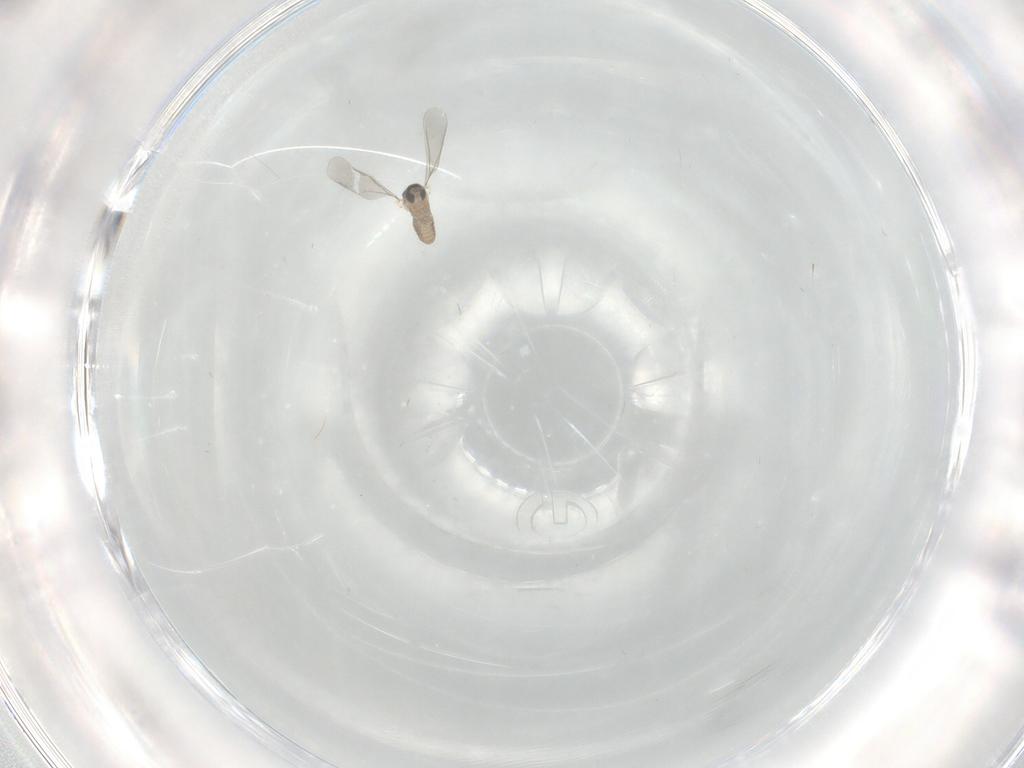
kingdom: Animalia
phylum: Arthropoda
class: Insecta
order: Diptera
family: Cecidomyiidae
